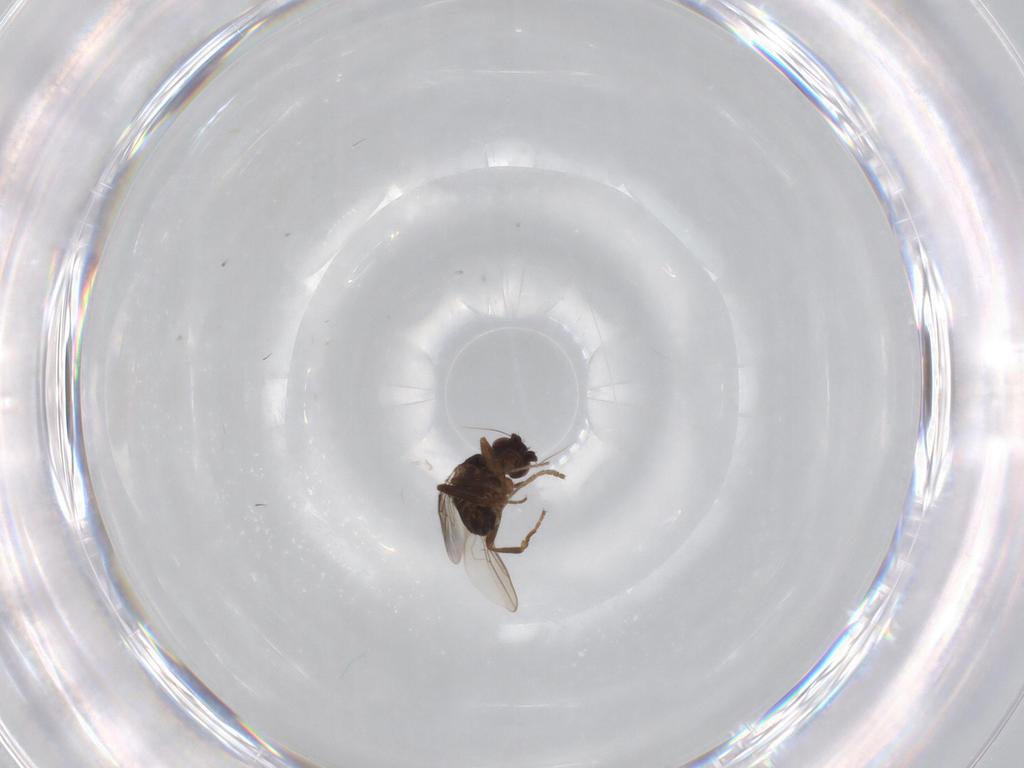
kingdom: Animalia
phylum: Arthropoda
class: Insecta
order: Diptera
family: Sphaeroceridae
